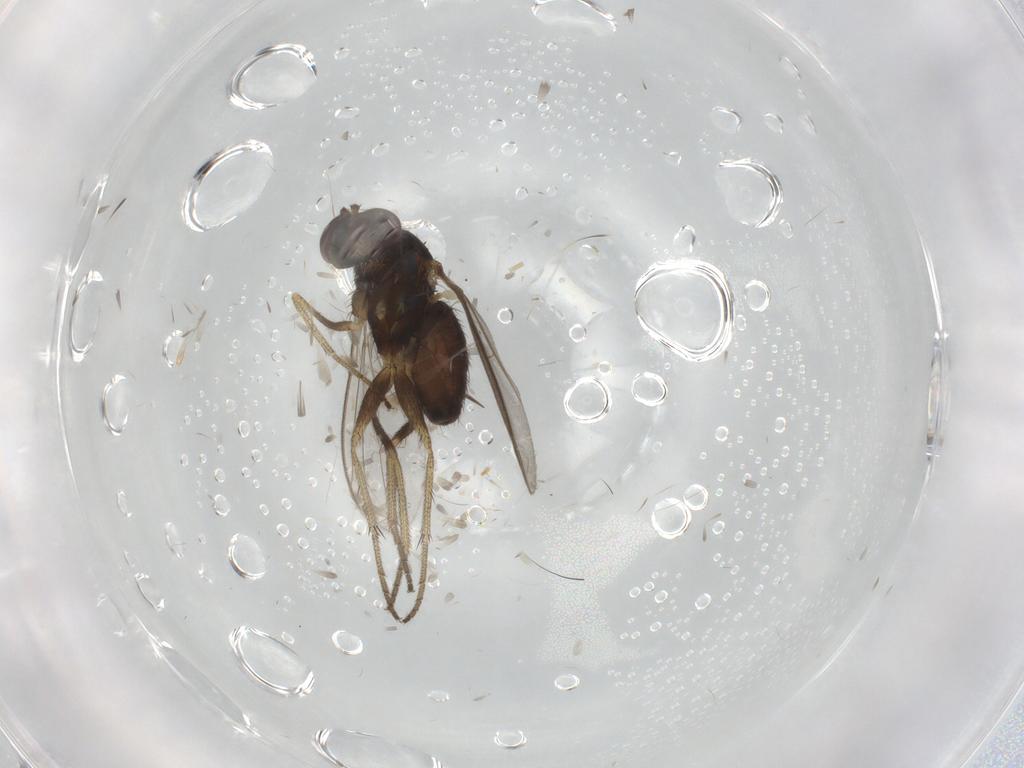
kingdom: Animalia
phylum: Arthropoda
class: Insecta
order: Diptera
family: Cecidomyiidae
